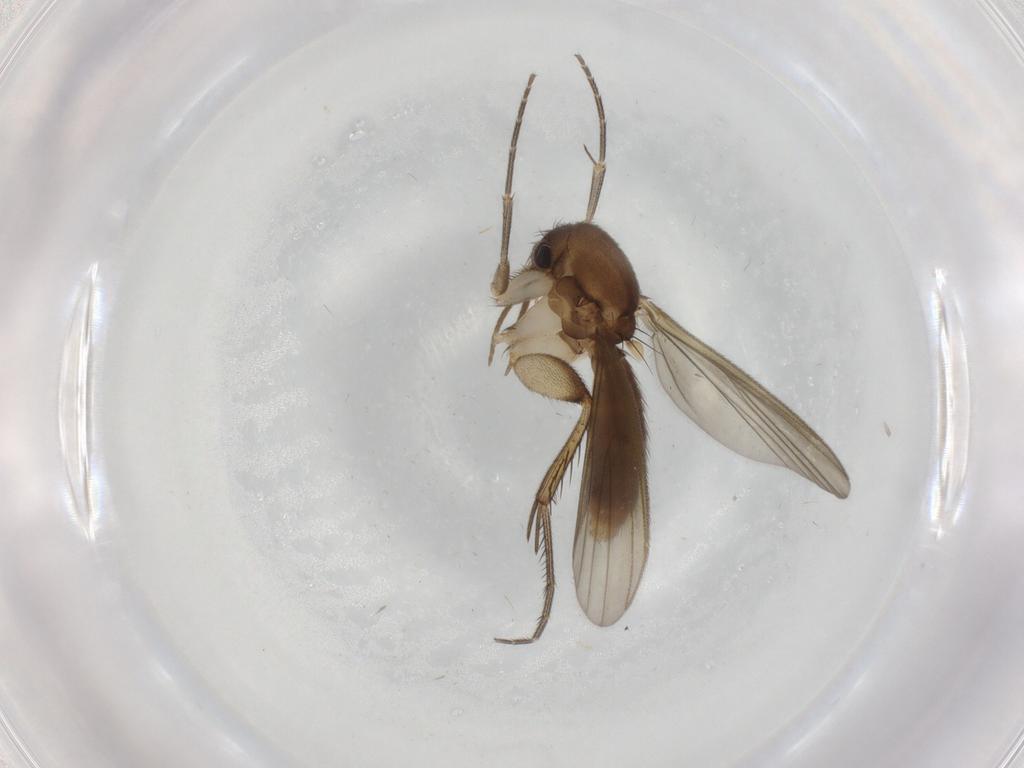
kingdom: Animalia
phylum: Arthropoda
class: Insecta
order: Diptera
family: Mycetophilidae
